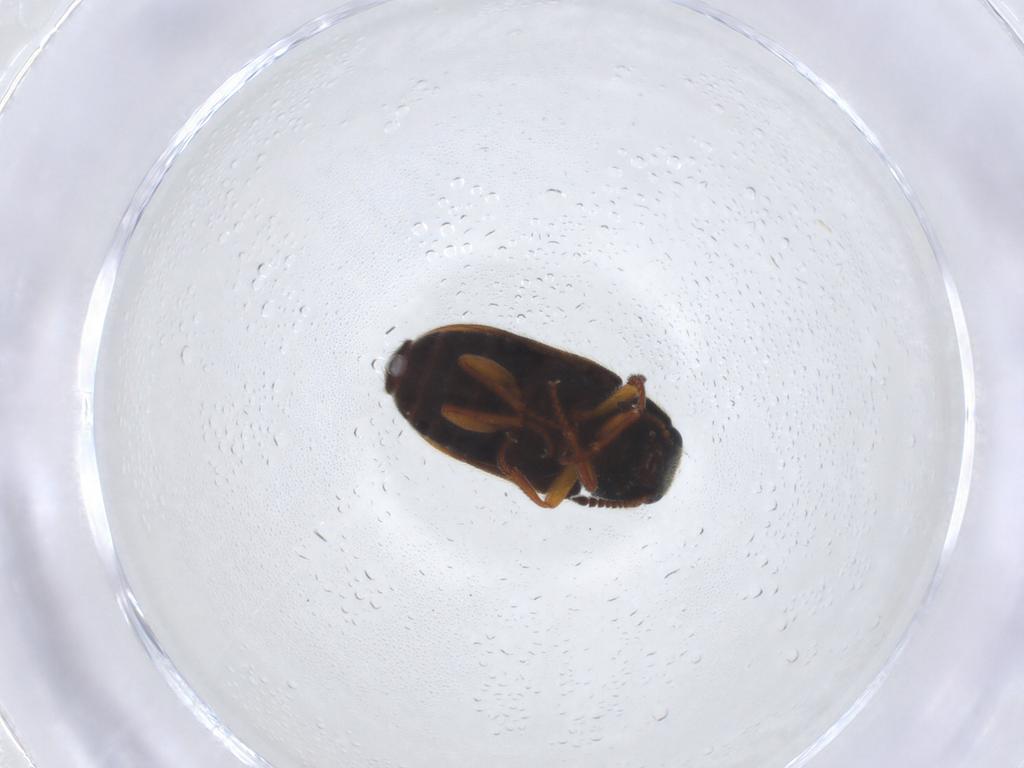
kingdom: Animalia
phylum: Arthropoda
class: Insecta
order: Coleoptera
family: Melyridae
